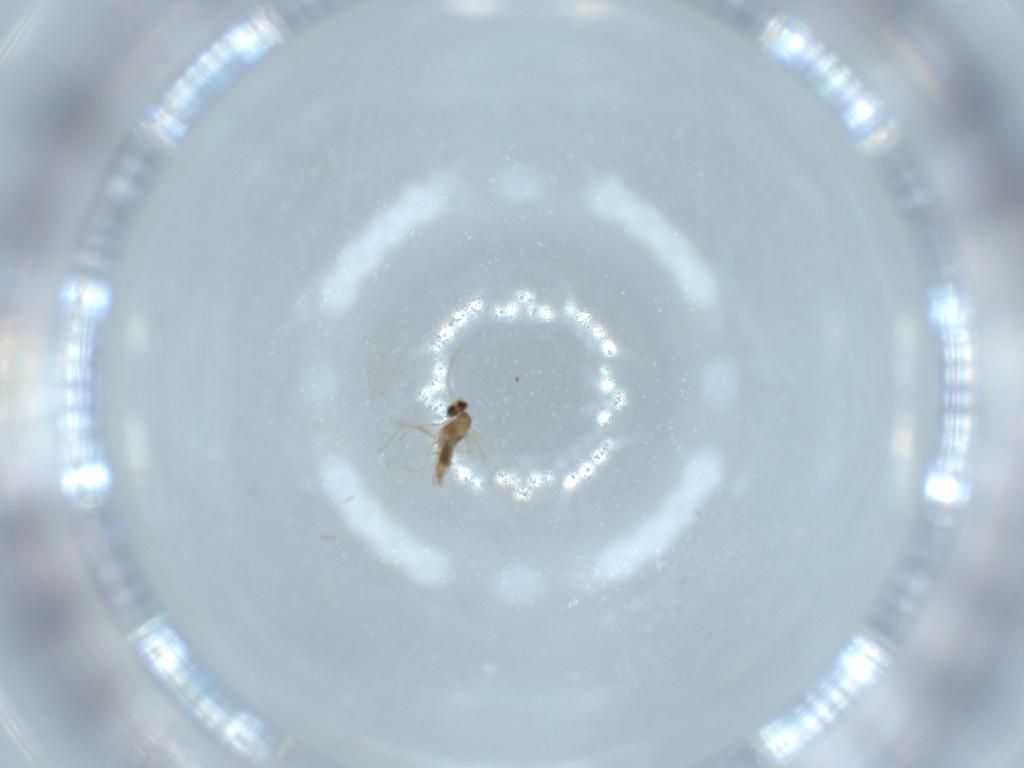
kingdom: Animalia
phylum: Arthropoda
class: Insecta
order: Diptera
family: Cecidomyiidae
